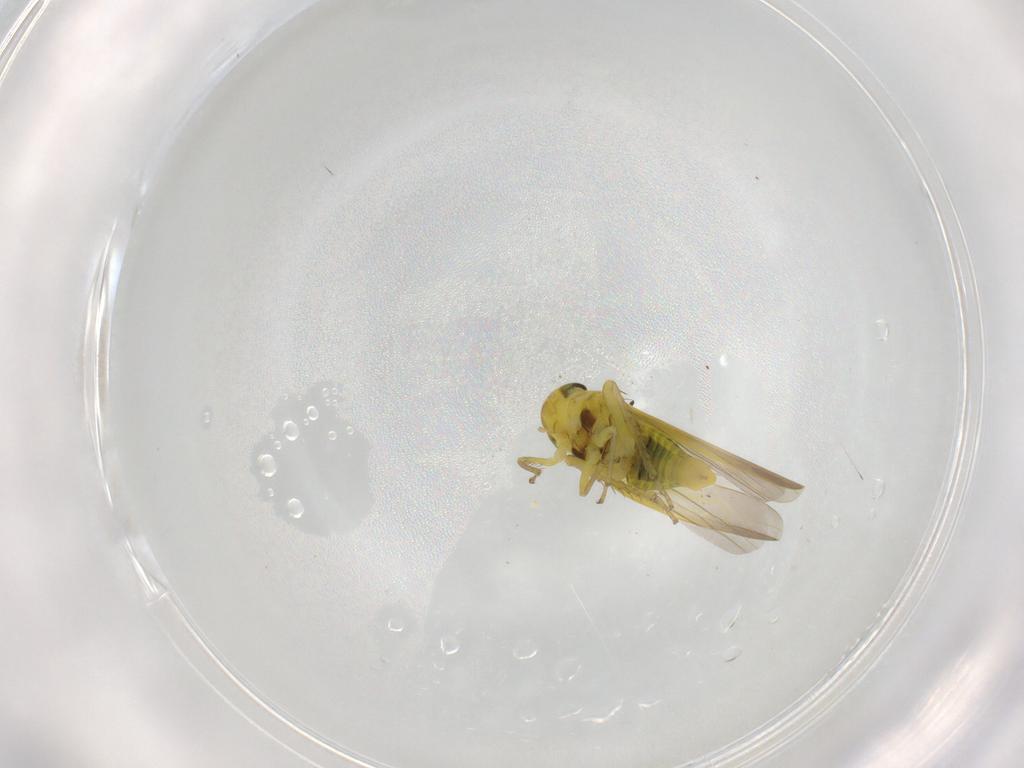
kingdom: Animalia
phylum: Arthropoda
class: Insecta
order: Hemiptera
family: Cicadellidae
